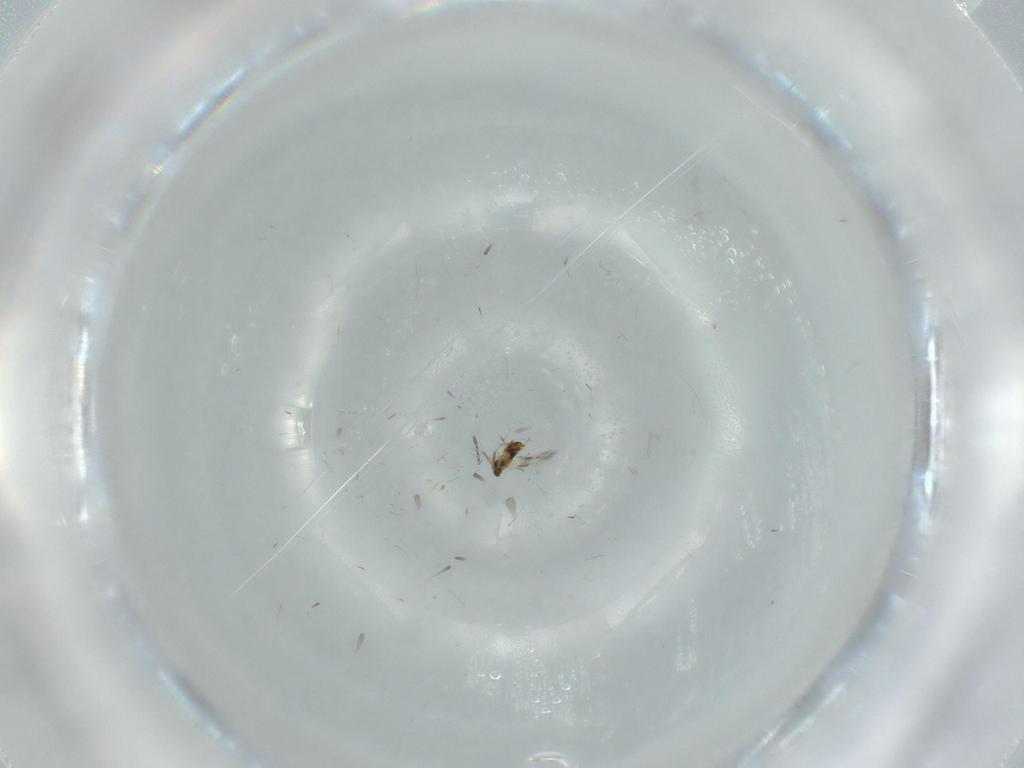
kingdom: Animalia
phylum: Arthropoda
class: Insecta
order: Hymenoptera
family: Aphelinidae
